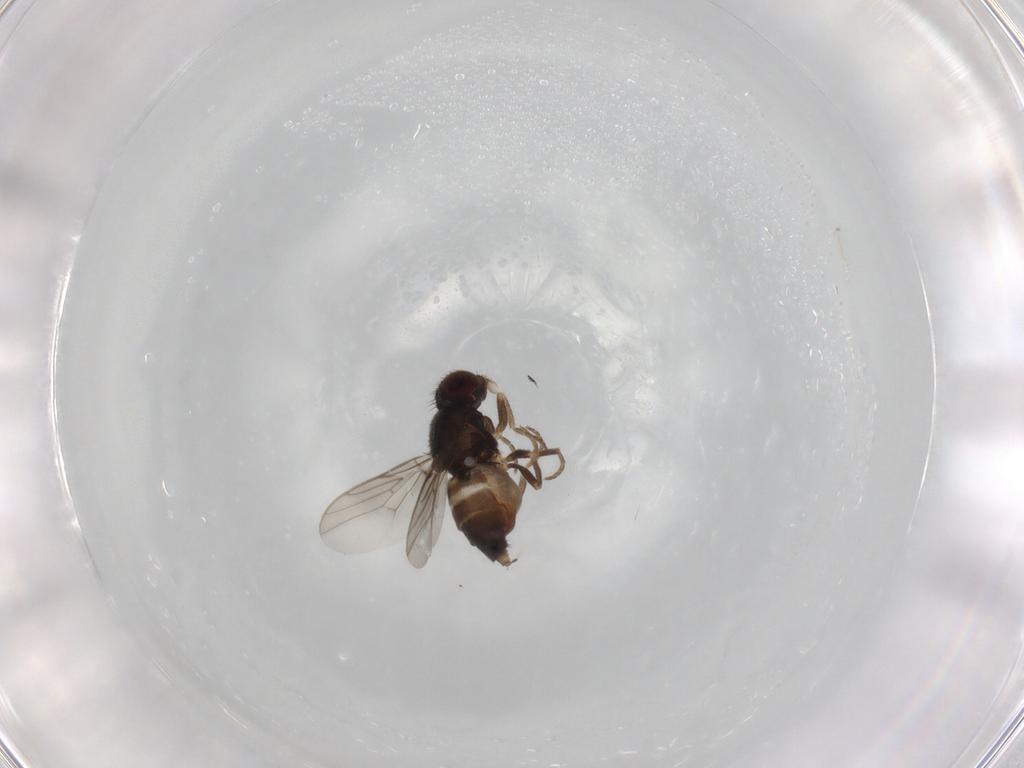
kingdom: Animalia
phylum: Arthropoda
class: Insecta
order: Diptera
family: Chloropidae
